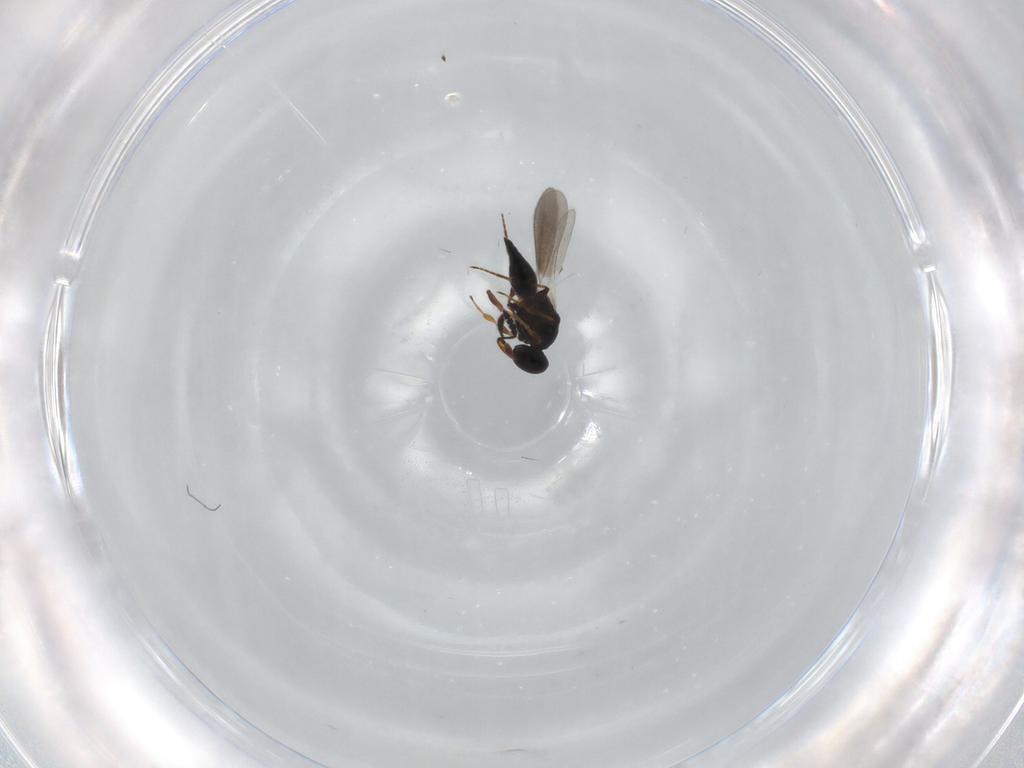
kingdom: Animalia
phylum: Arthropoda
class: Insecta
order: Hymenoptera
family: Platygastridae
